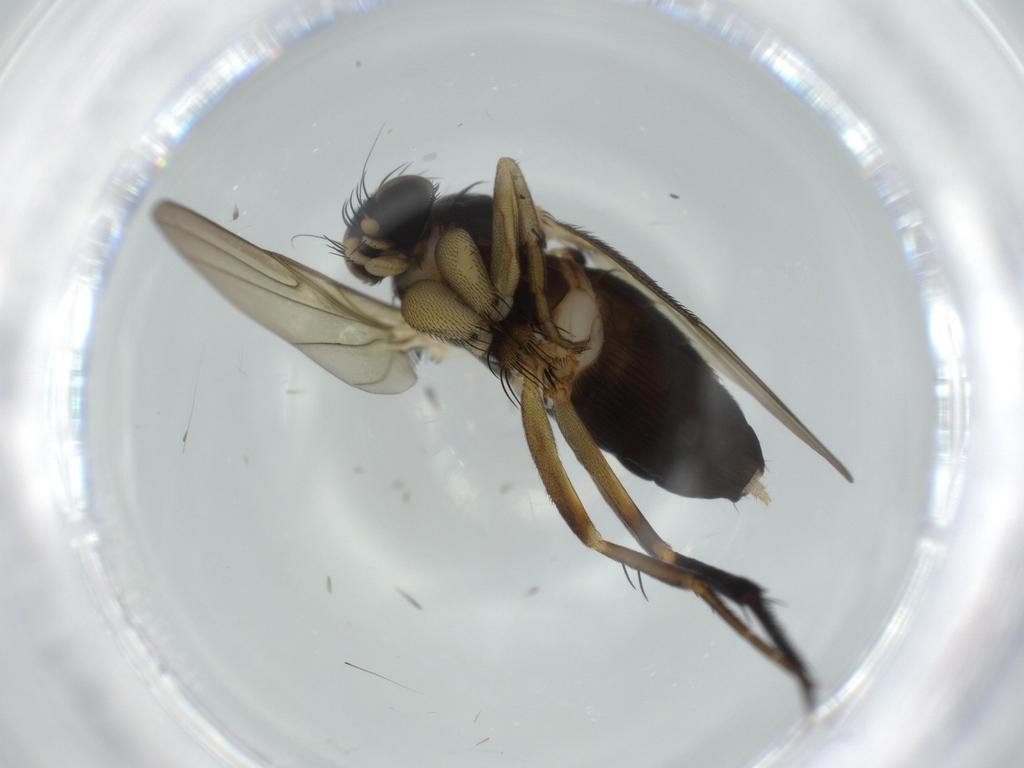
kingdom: Animalia
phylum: Arthropoda
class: Insecta
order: Diptera
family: Phoridae
